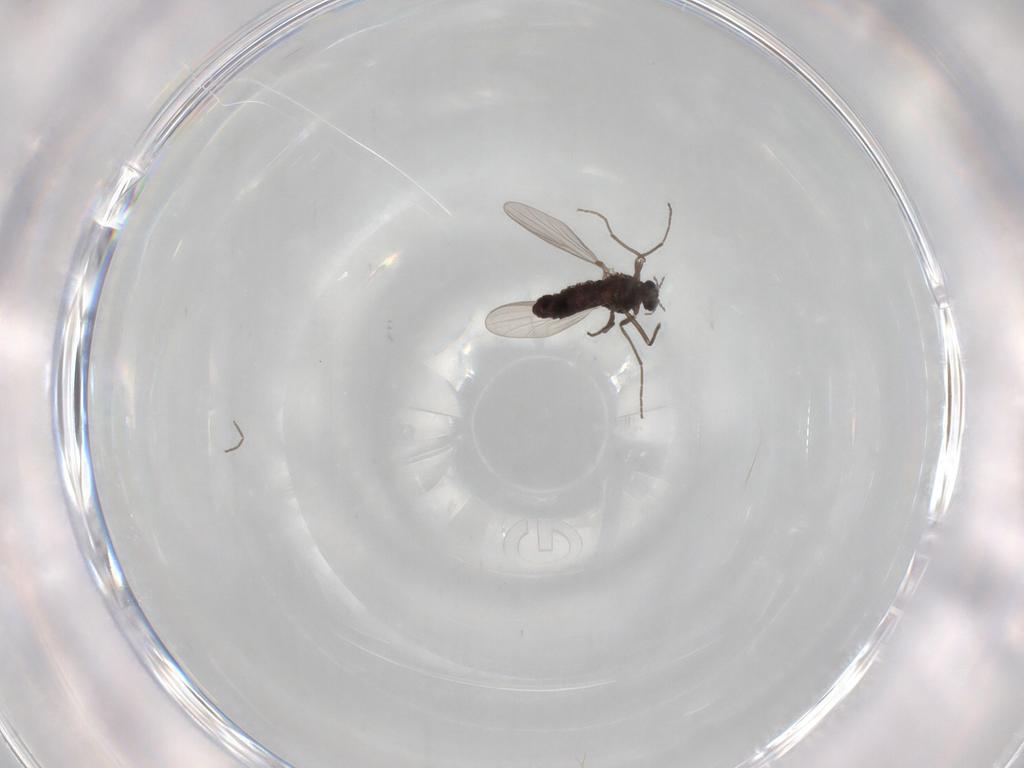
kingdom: Animalia
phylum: Arthropoda
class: Insecta
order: Diptera
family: Chironomidae
